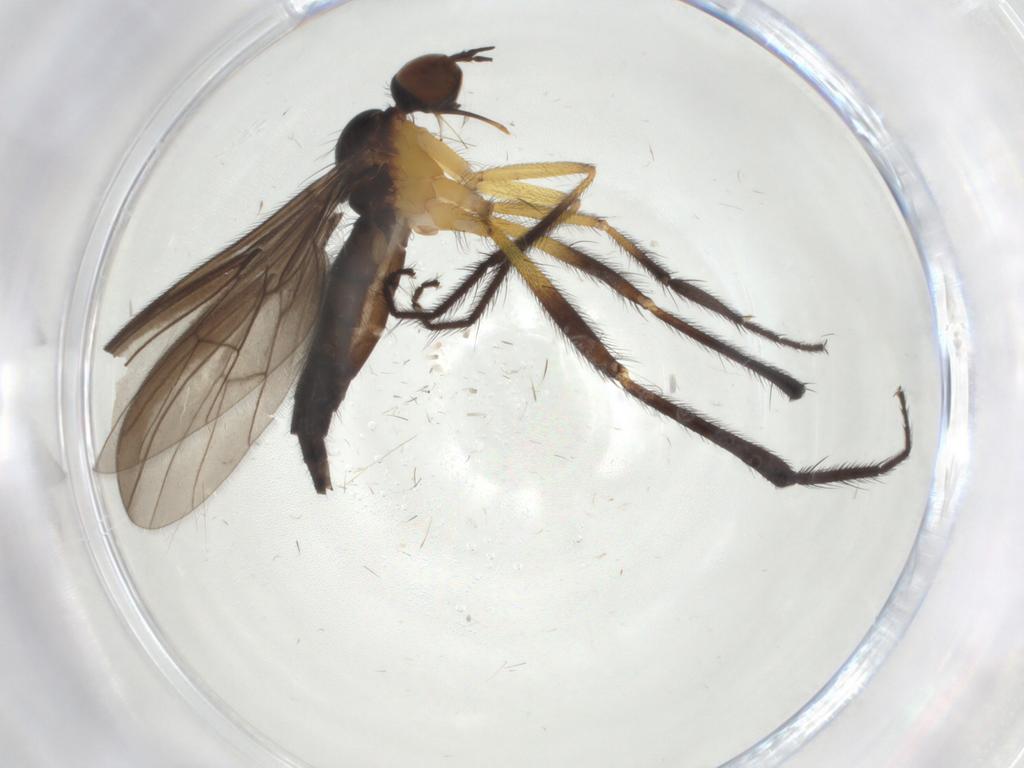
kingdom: Animalia
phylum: Arthropoda
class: Insecta
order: Diptera
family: Empididae
